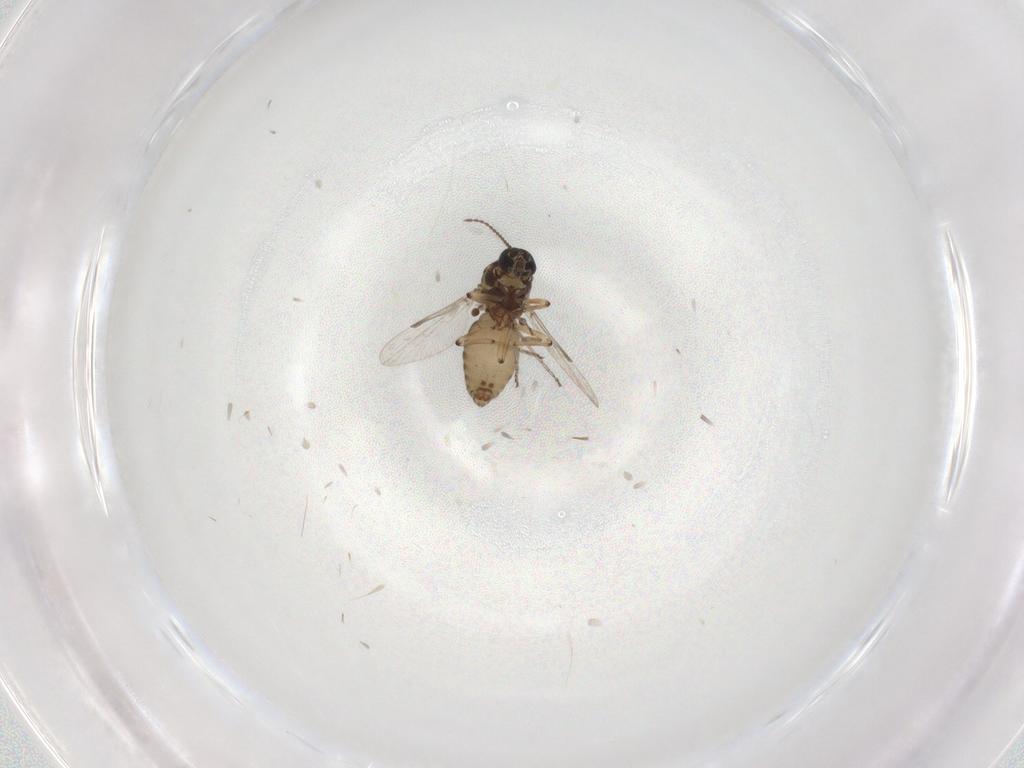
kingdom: Animalia
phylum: Arthropoda
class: Insecta
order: Diptera
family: Ceratopogonidae
